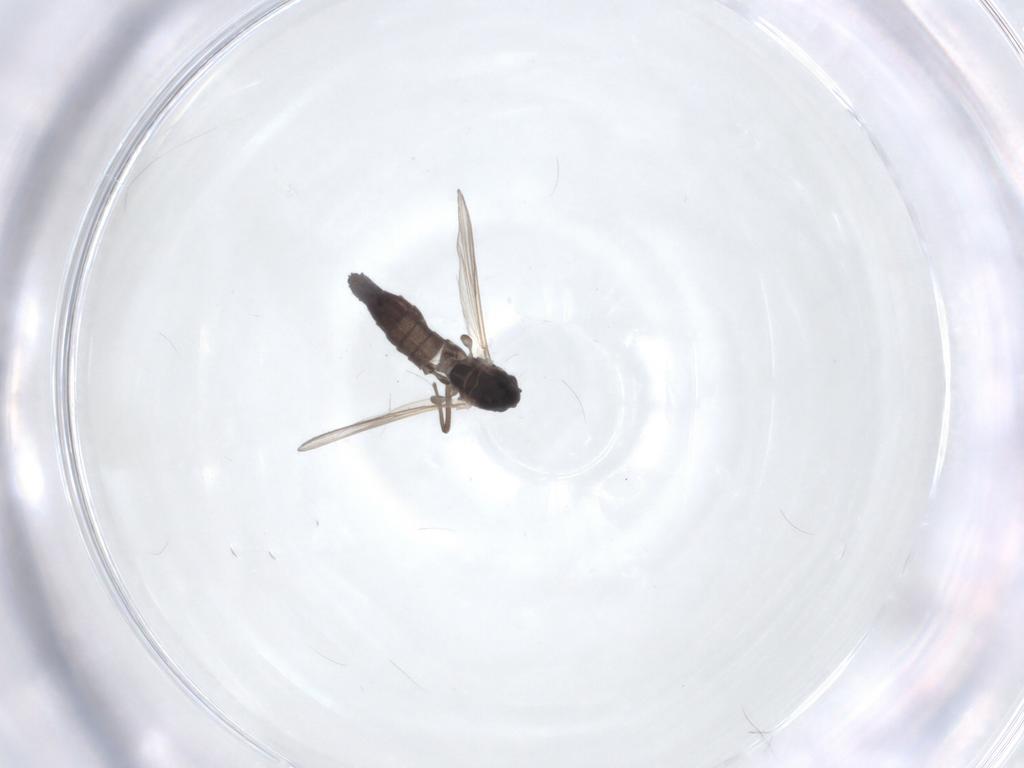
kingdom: Animalia
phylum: Arthropoda
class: Insecta
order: Diptera
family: Chironomidae
